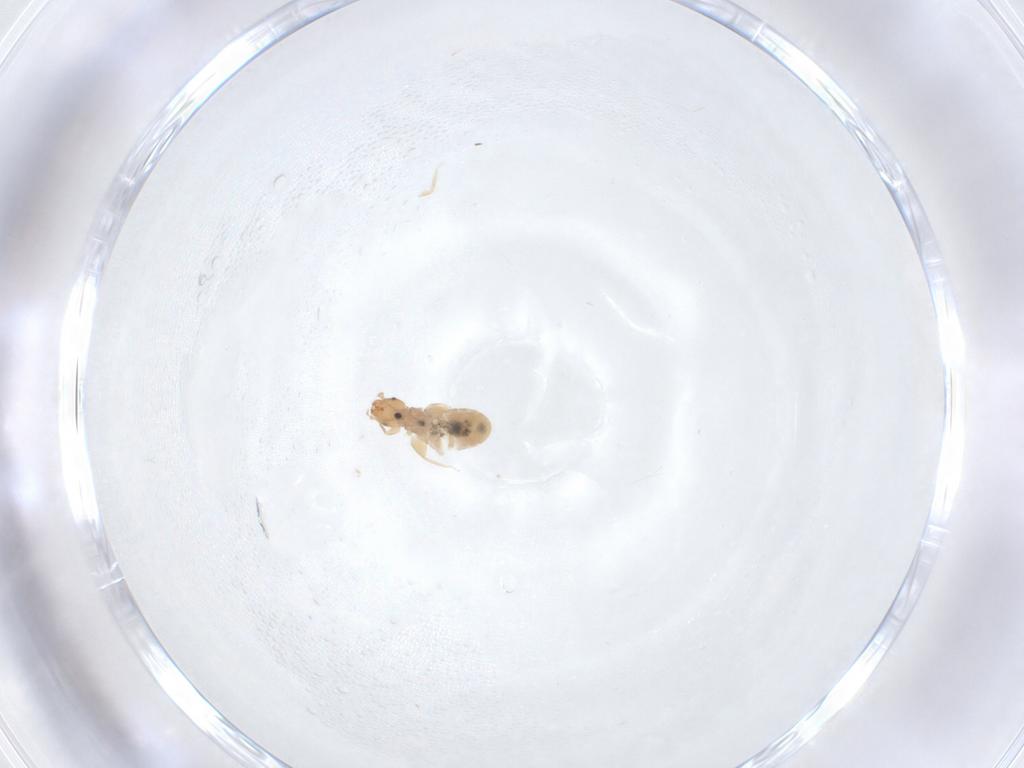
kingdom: Animalia
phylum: Arthropoda
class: Insecta
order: Psocodea
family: Liposcelididae
